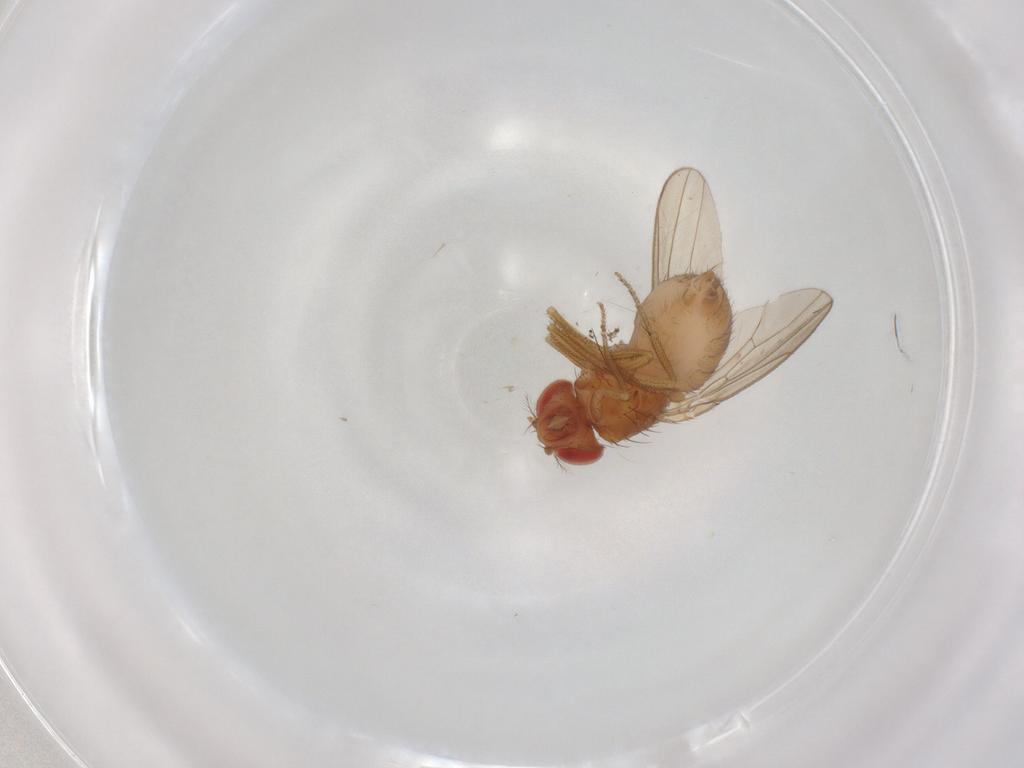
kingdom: Animalia
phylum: Arthropoda
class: Insecta
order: Diptera
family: Drosophilidae
